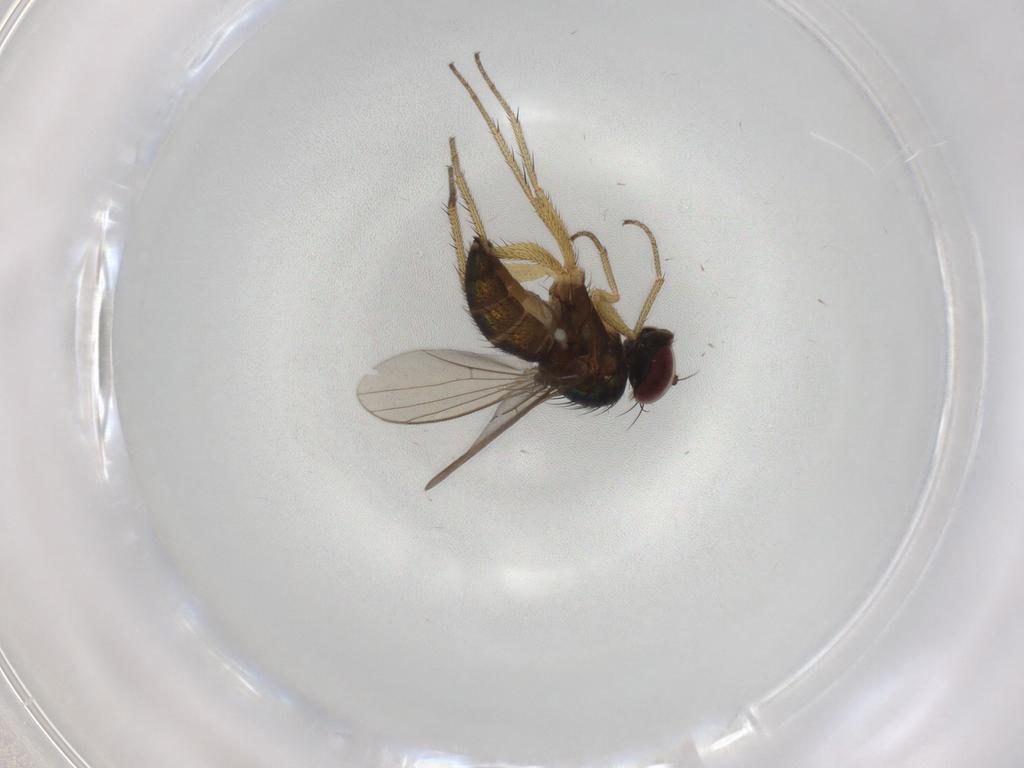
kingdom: Animalia
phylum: Arthropoda
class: Insecta
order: Diptera
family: Dolichopodidae
